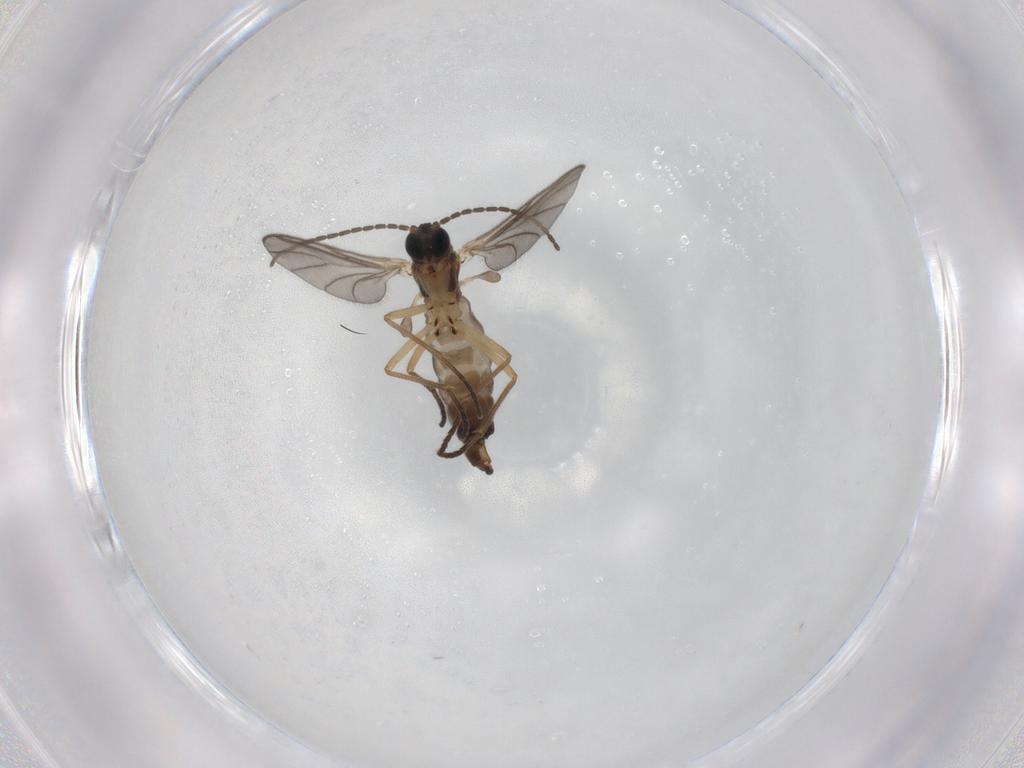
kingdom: Animalia
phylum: Arthropoda
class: Insecta
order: Diptera
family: Sciaridae
